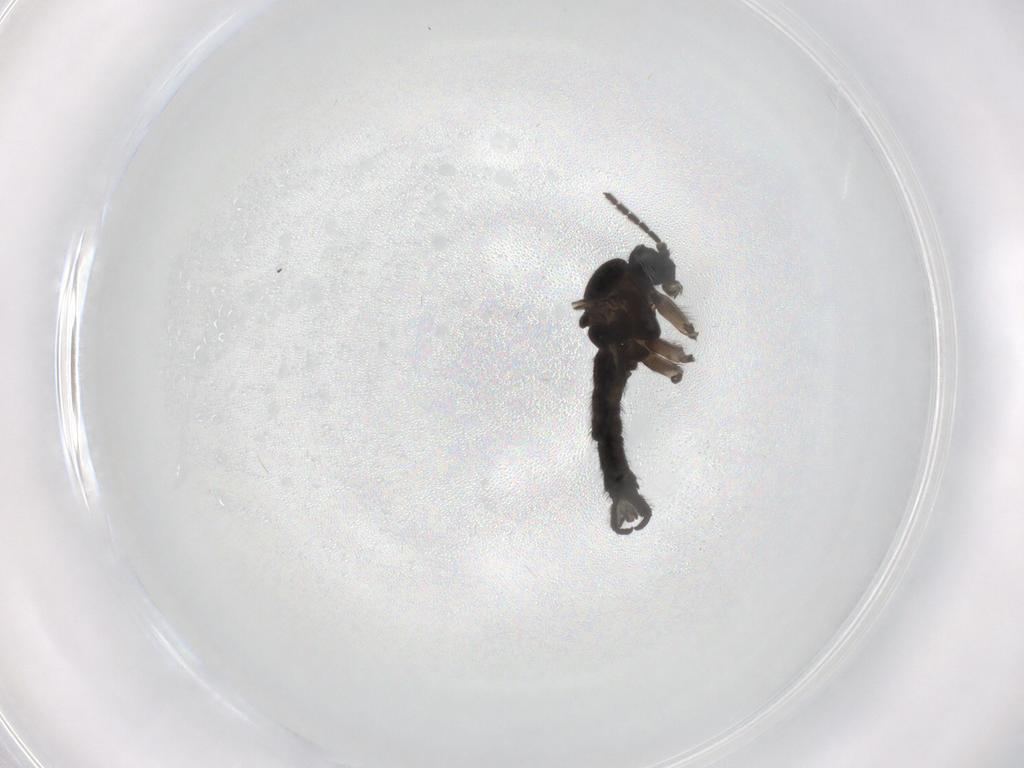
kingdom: Animalia
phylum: Arthropoda
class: Insecta
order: Diptera
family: Sciaridae
